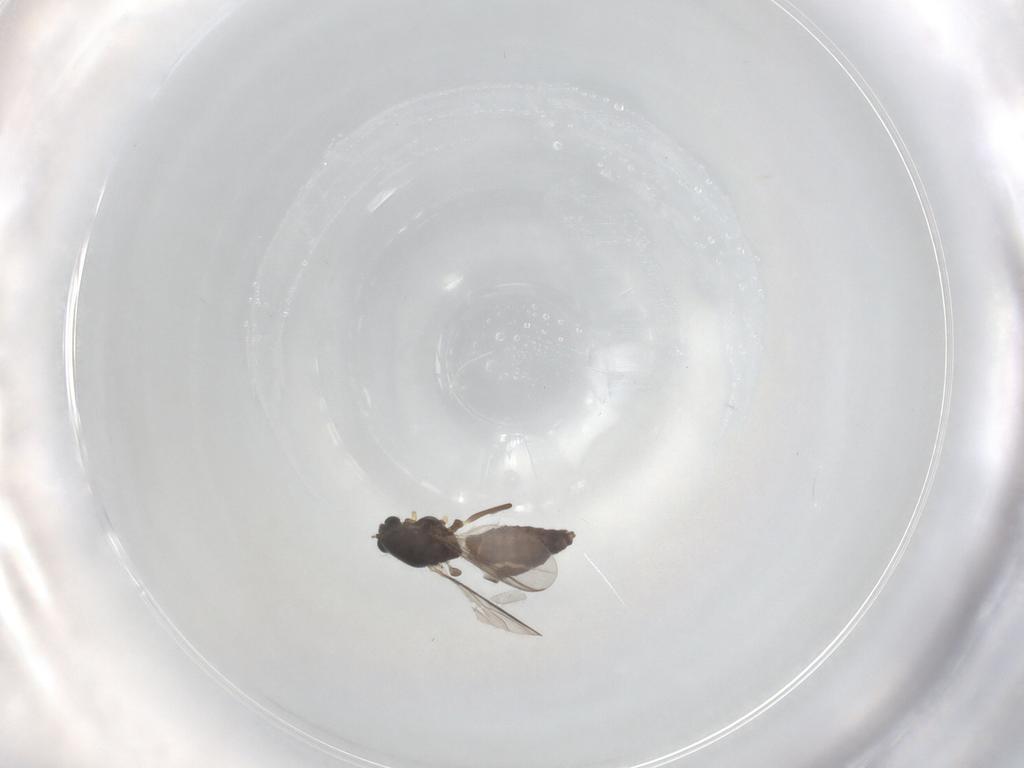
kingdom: Animalia
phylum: Arthropoda
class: Insecta
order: Diptera
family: Chironomidae
